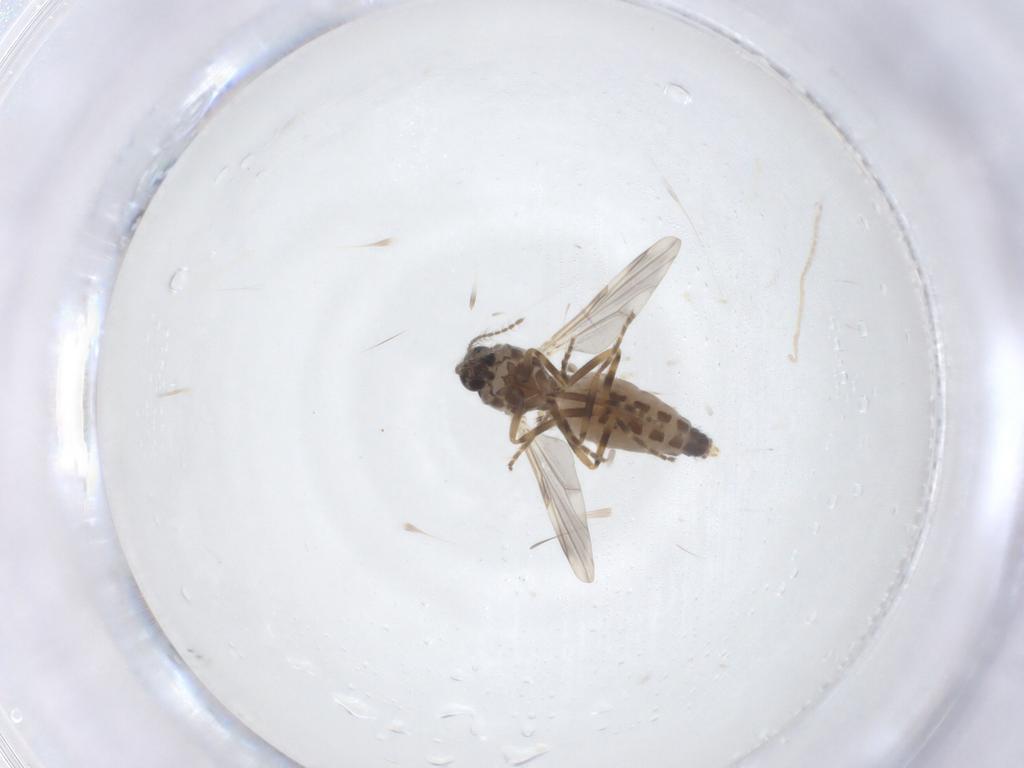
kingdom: Animalia
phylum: Arthropoda
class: Insecta
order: Diptera
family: Ceratopogonidae
